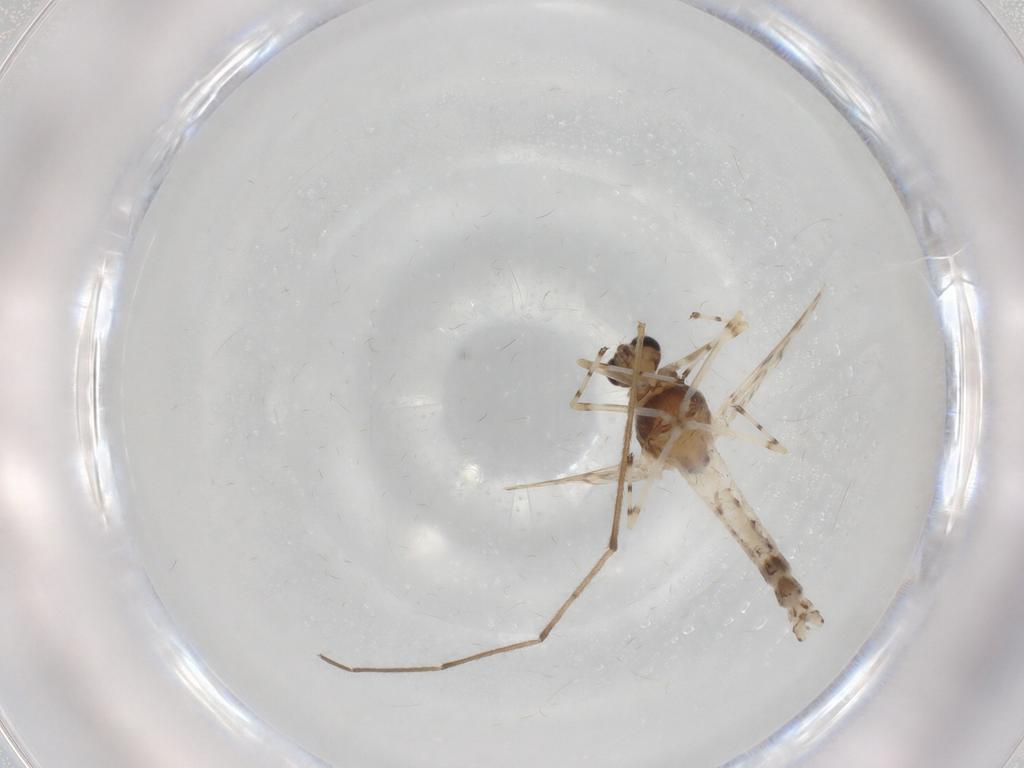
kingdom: Animalia
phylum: Arthropoda
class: Insecta
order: Diptera
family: Chironomidae
